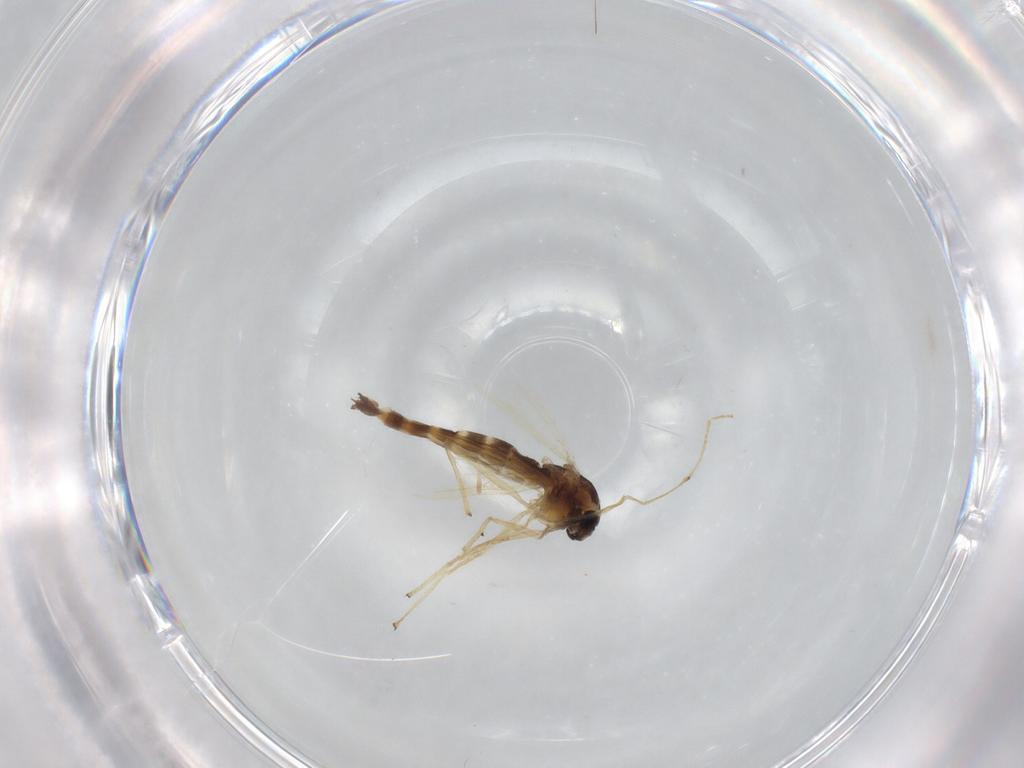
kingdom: Animalia
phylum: Arthropoda
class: Insecta
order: Diptera
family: Chironomidae
